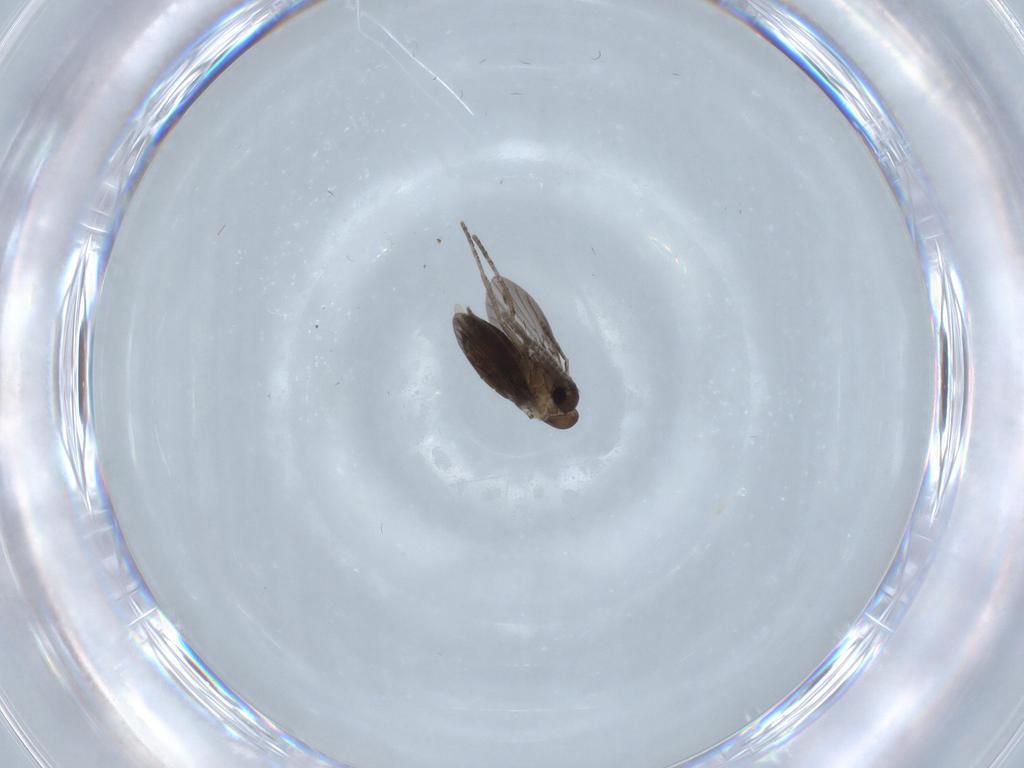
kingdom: Animalia
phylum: Arthropoda
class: Insecta
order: Diptera
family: Cecidomyiidae
